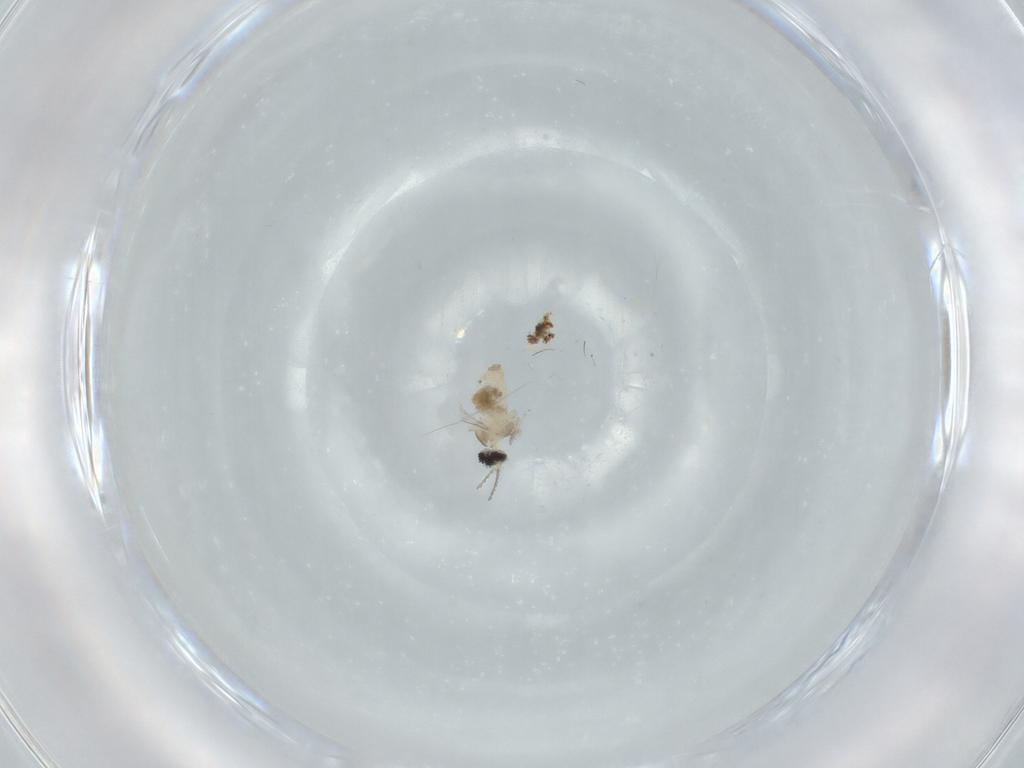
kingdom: Animalia
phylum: Arthropoda
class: Insecta
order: Diptera
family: Cecidomyiidae
